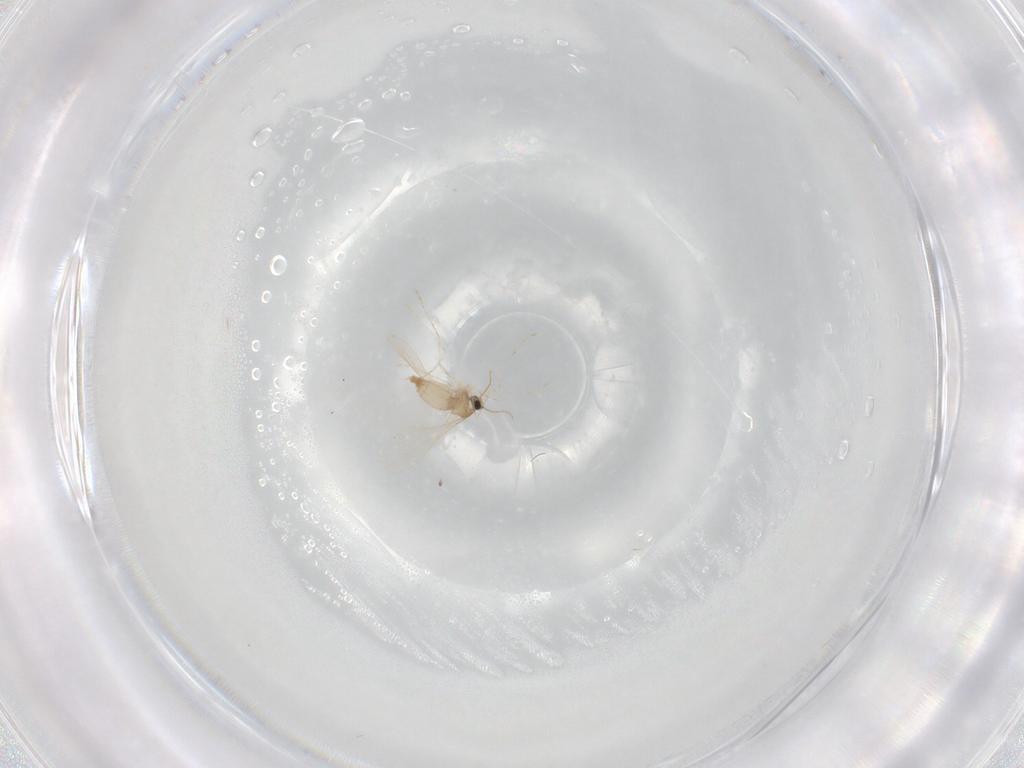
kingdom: Animalia
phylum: Arthropoda
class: Insecta
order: Diptera
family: Cecidomyiidae
